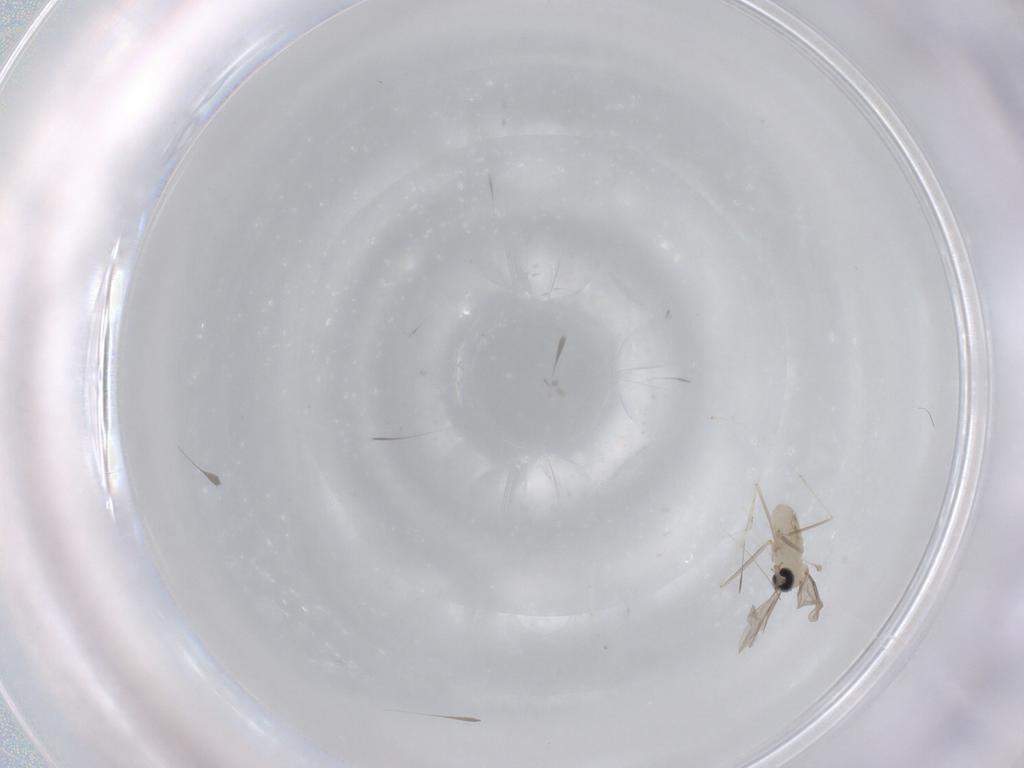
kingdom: Animalia
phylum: Arthropoda
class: Insecta
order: Diptera
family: Cecidomyiidae
